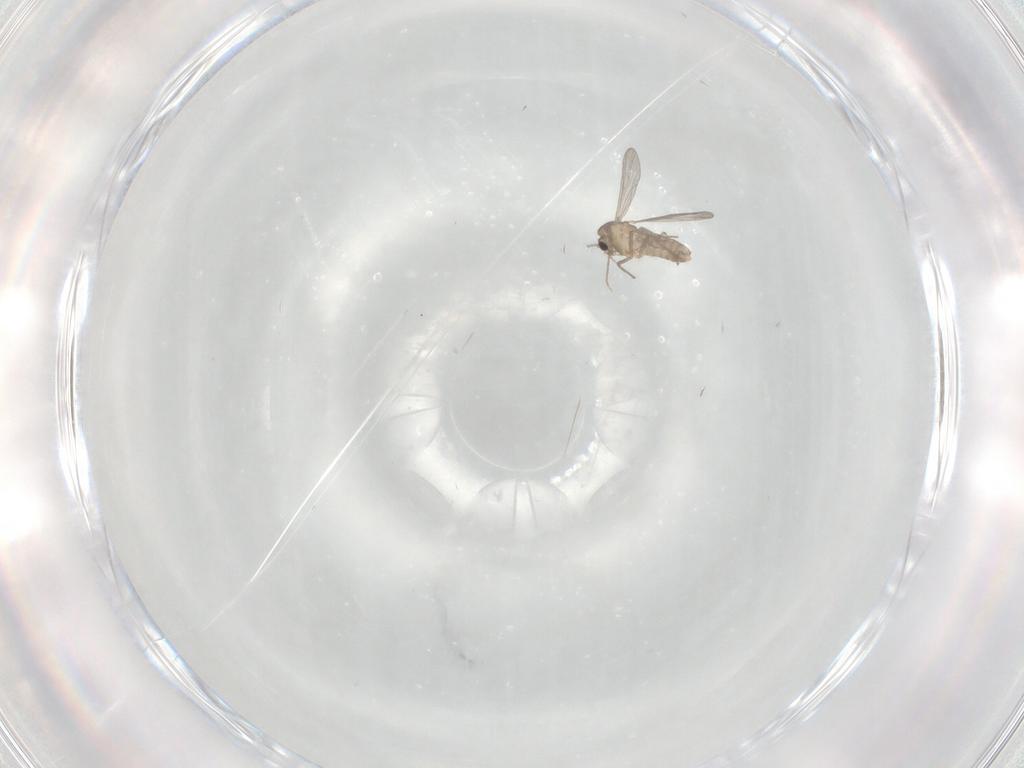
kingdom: Animalia
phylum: Arthropoda
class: Insecta
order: Diptera
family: Chironomidae
